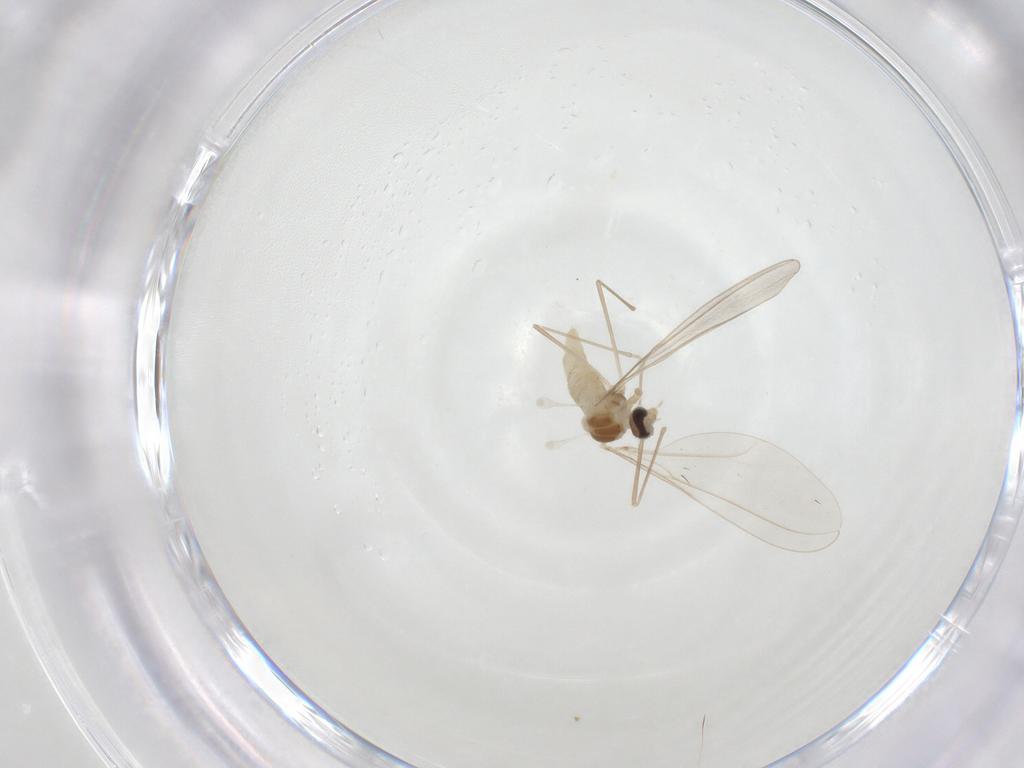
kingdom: Animalia
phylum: Arthropoda
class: Insecta
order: Diptera
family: Cecidomyiidae
